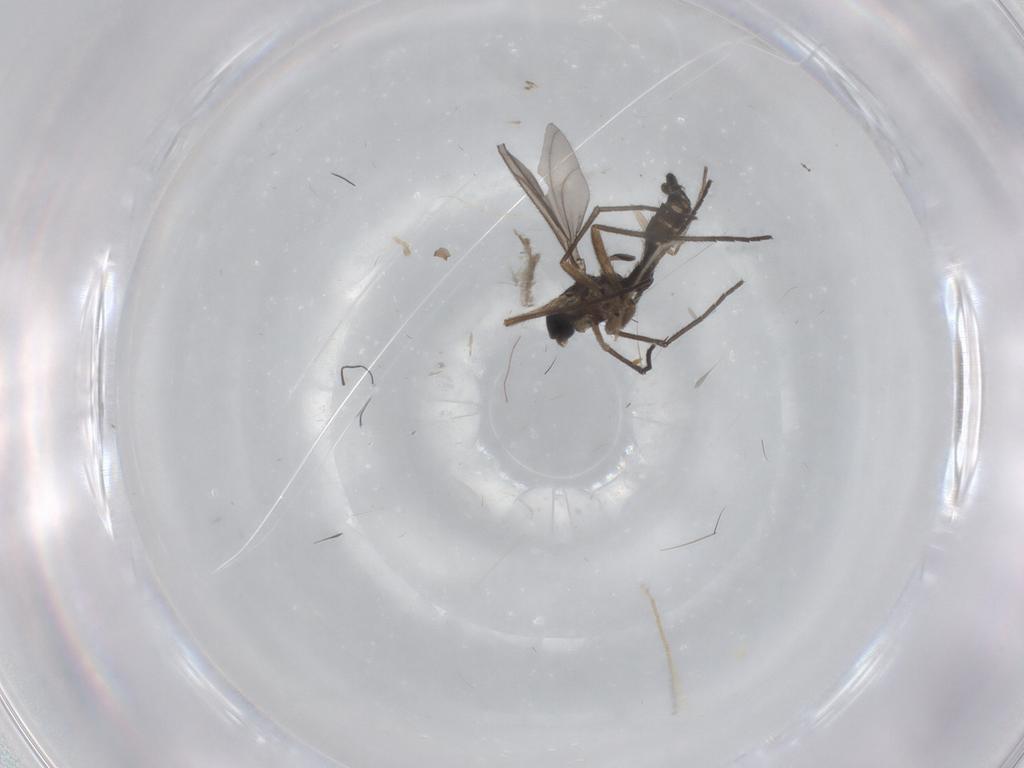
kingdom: Animalia
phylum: Arthropoda
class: Insecta
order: Diptera
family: Sciaridae
